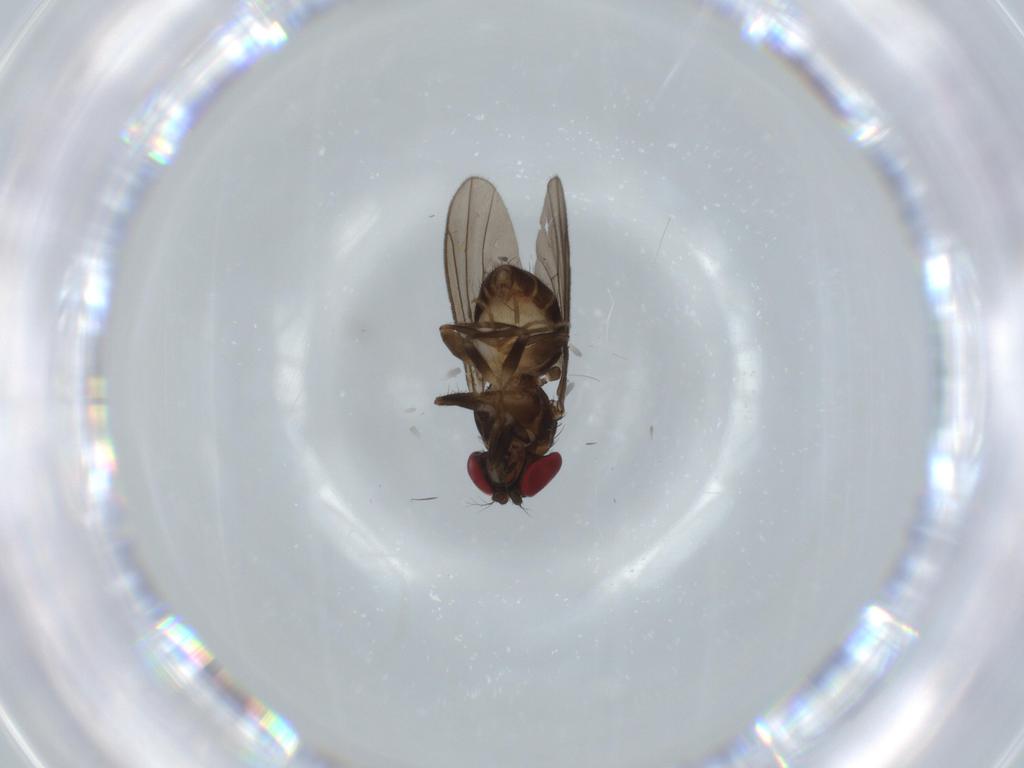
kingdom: Animalia
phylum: Arthropoda
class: Insecta
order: Diptera
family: Drosophilidae
